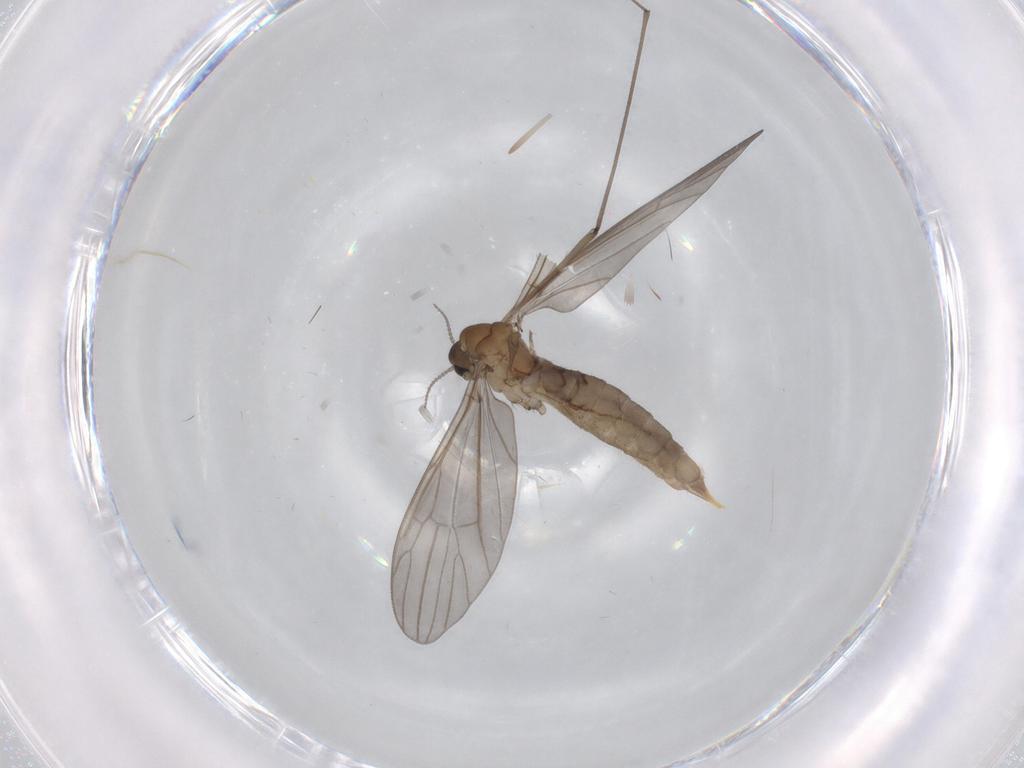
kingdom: Animalia
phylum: Arthropoda
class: Insecta
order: Diptera
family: Limoniidae
